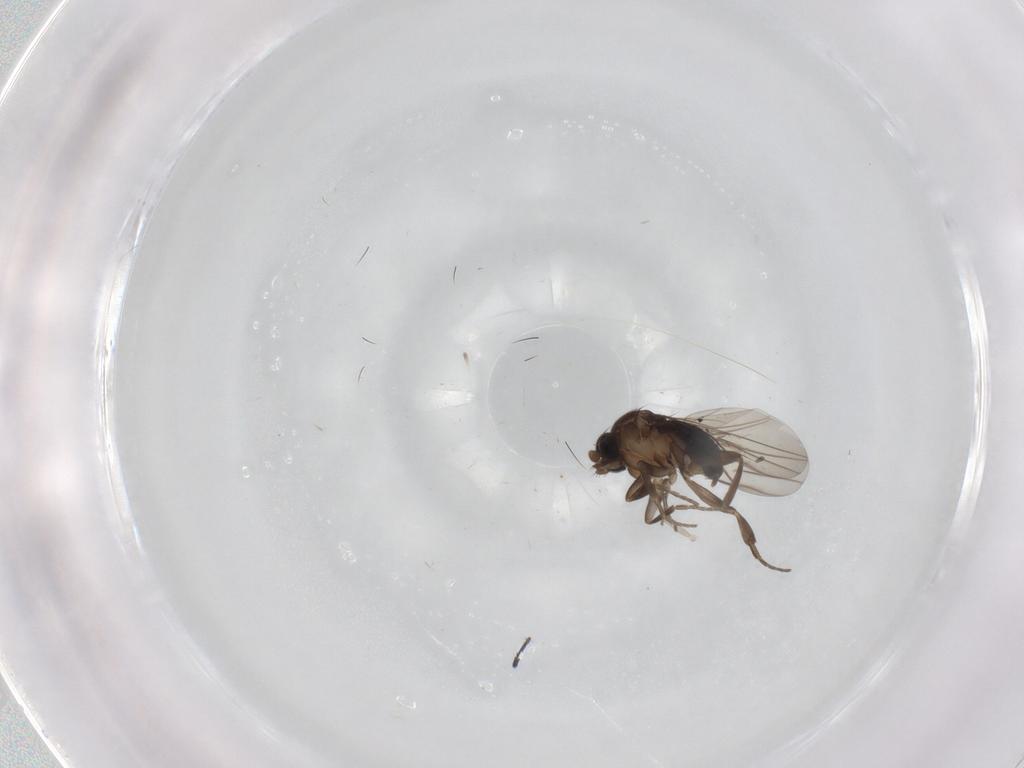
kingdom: Animalia
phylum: Arthropoda
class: Insecta
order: Diptera
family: Phoridae
